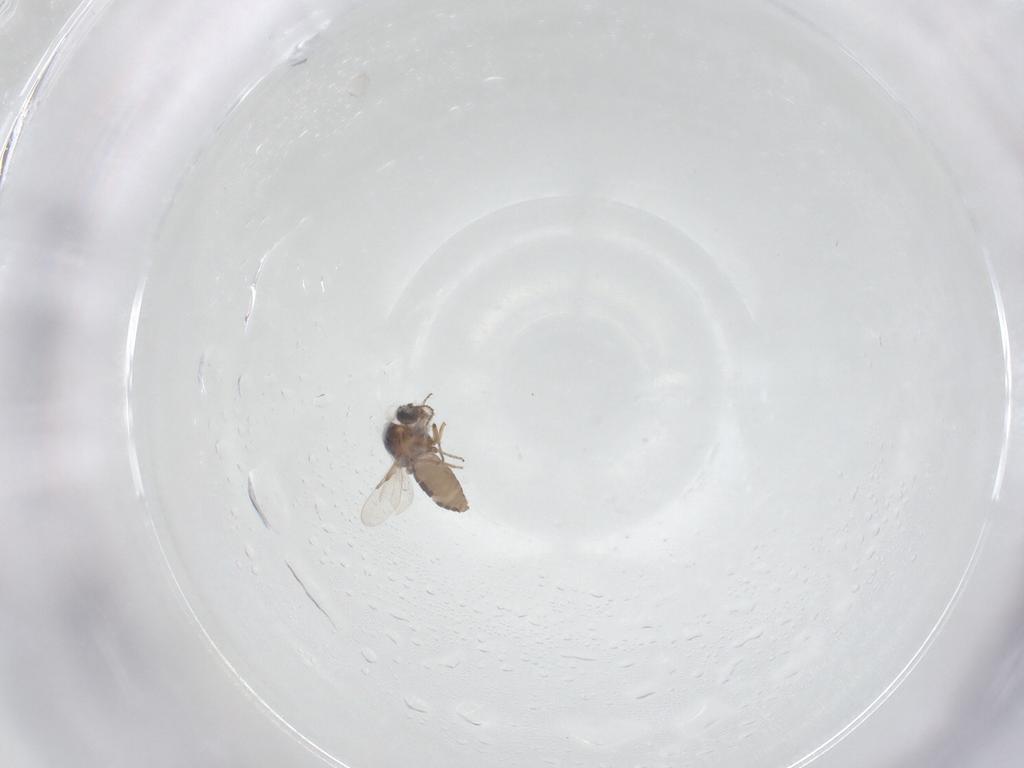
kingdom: Animalia
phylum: Arthropoda
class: Insecta
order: Diptera
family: Ceratopogonidae
